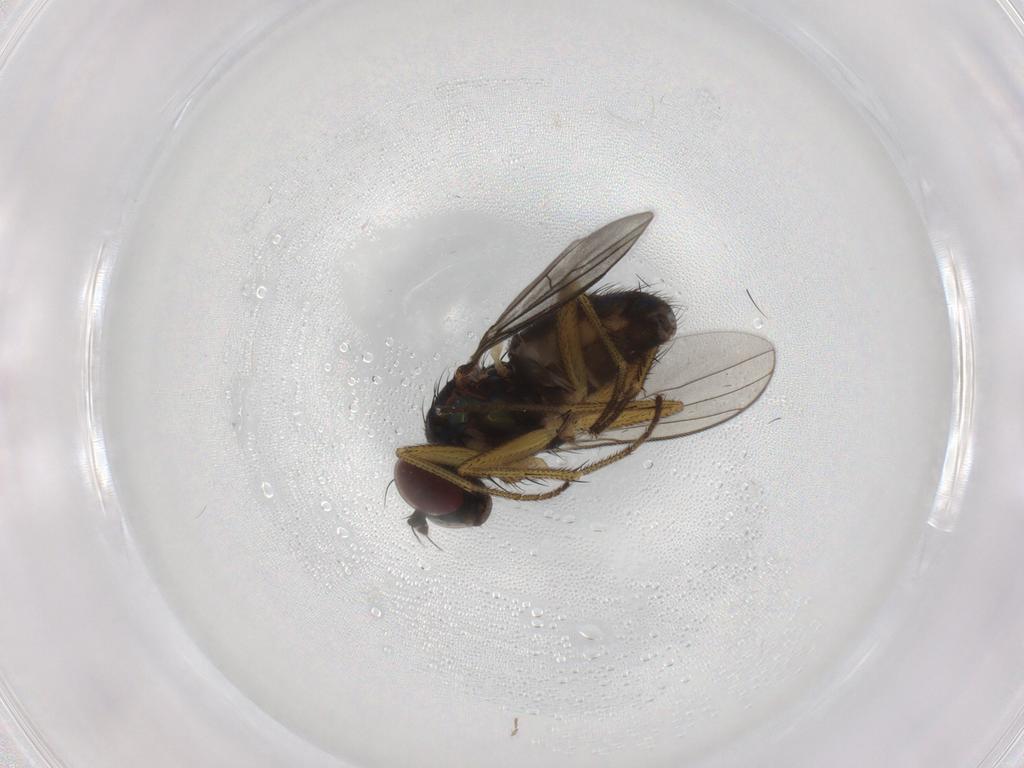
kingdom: Animalia
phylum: Arthropoda
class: Insecta
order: Diptera
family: Dolichopodidae
